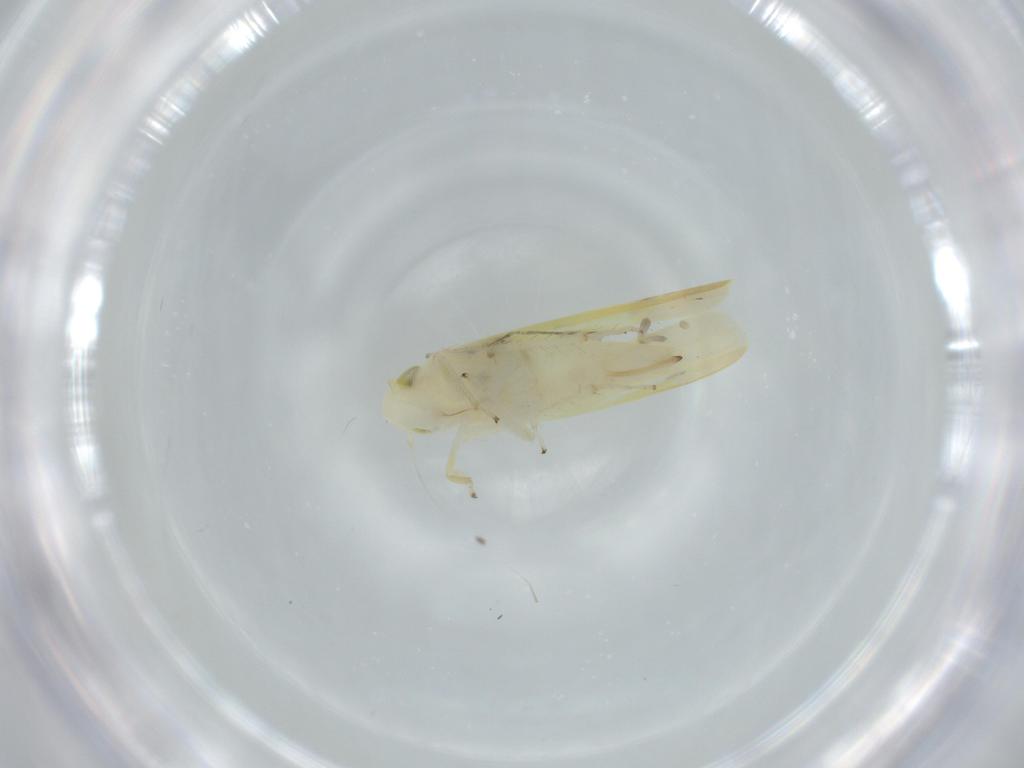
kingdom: Animalia
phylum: Arthropoda
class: Insecta
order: Hemiptera
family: Cicadellidae
